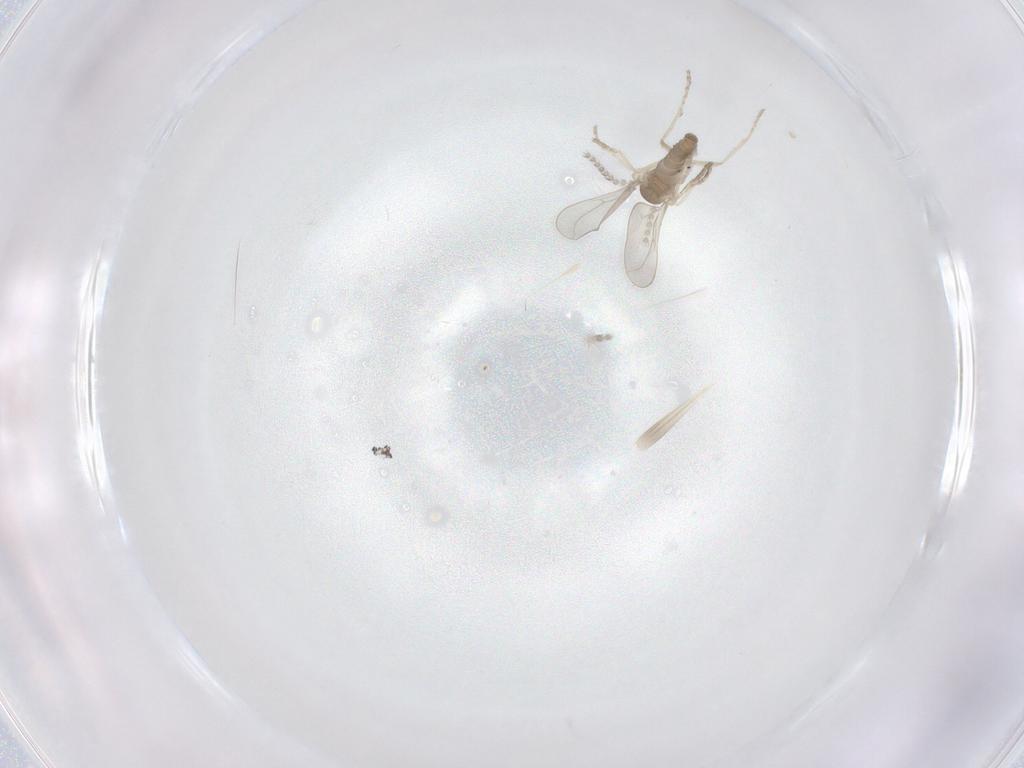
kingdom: Animalia
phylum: Arthropoda
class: Insecta
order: Diptera
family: Cecidomyiidae
